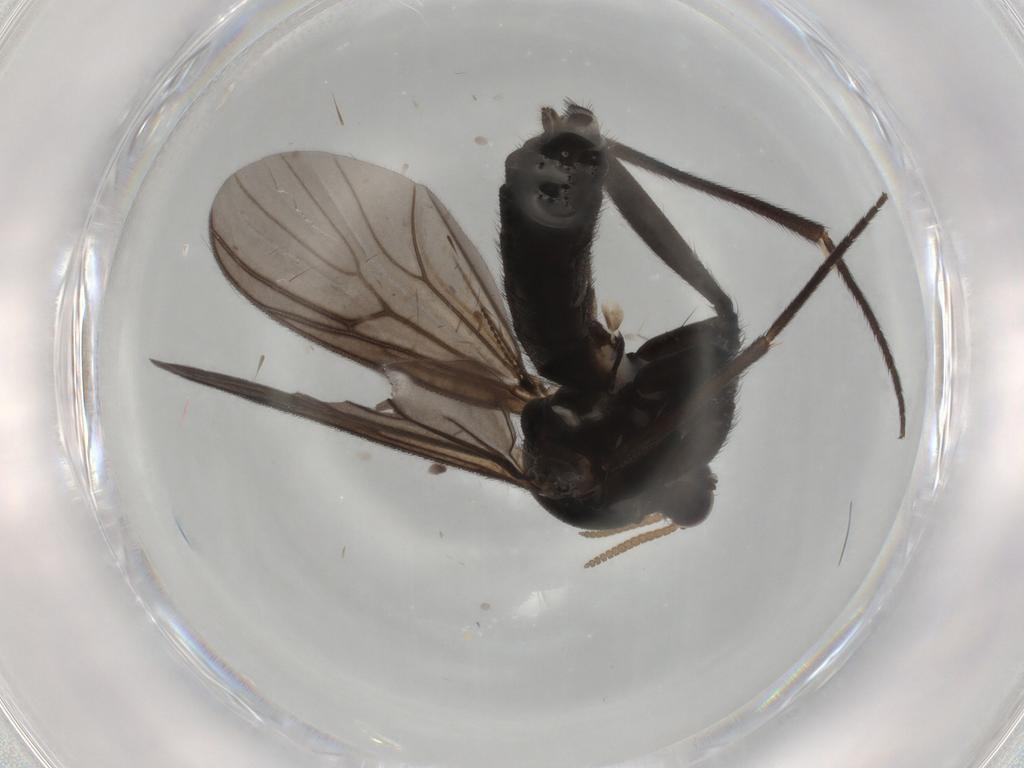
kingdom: Animalia
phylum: Arthropoda
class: Insecta
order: Diptera
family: Mycetophilidae
